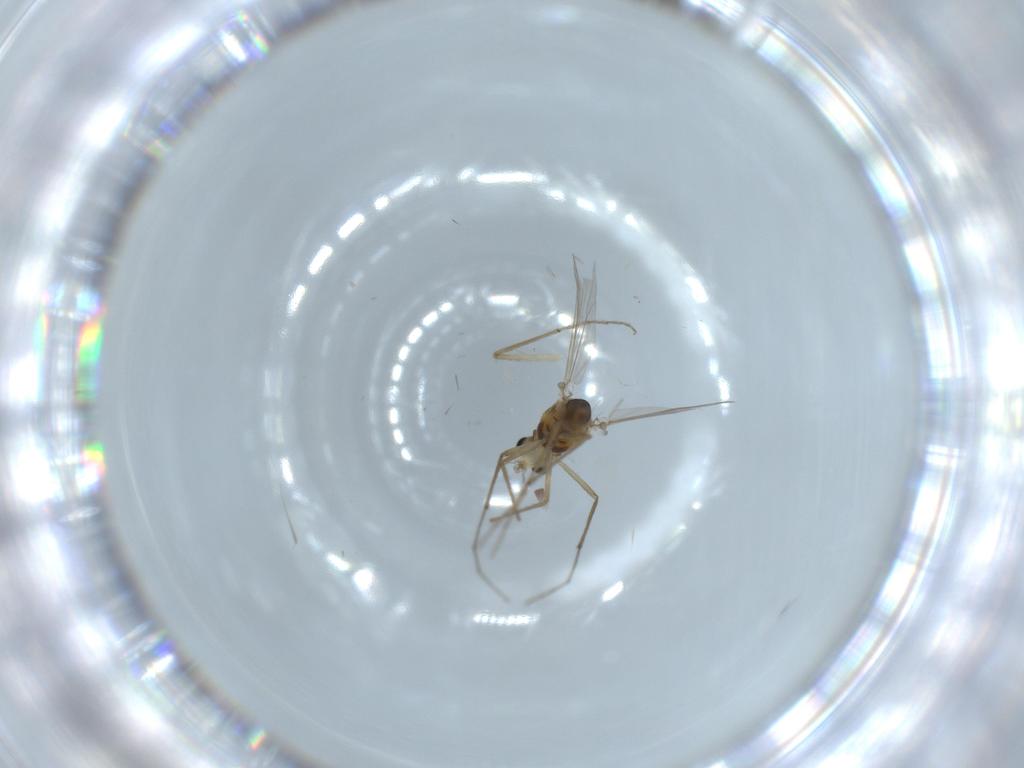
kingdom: Animalia
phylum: Arthropoda
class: Insecta
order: Diptera
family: Chironomidae
